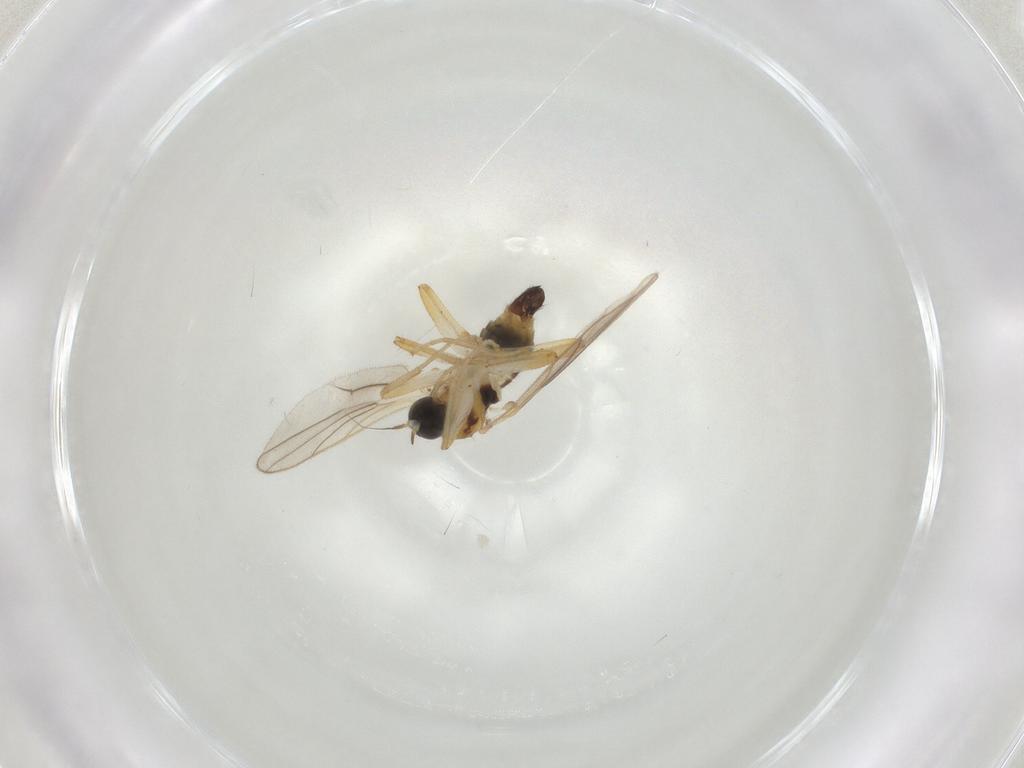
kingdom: Animalia
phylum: Arthropoda
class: Insecta
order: Diptera
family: Hybotidae
